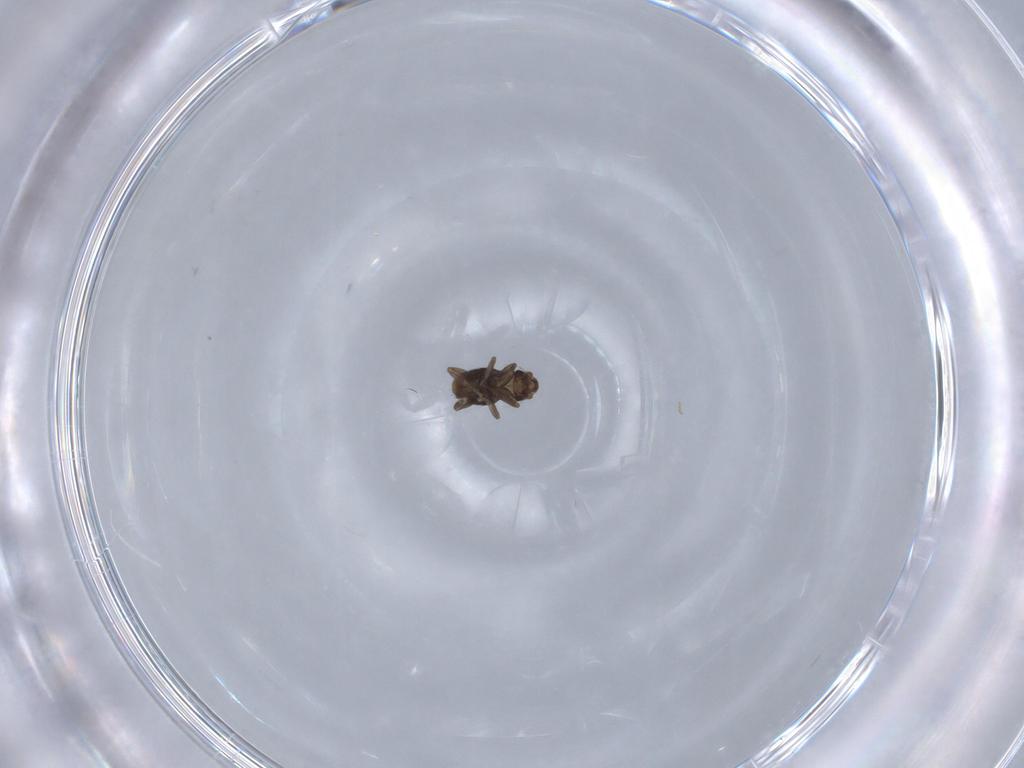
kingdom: Animalia
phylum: Arthropoda
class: Insecta
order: Diptera
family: Phoridae
